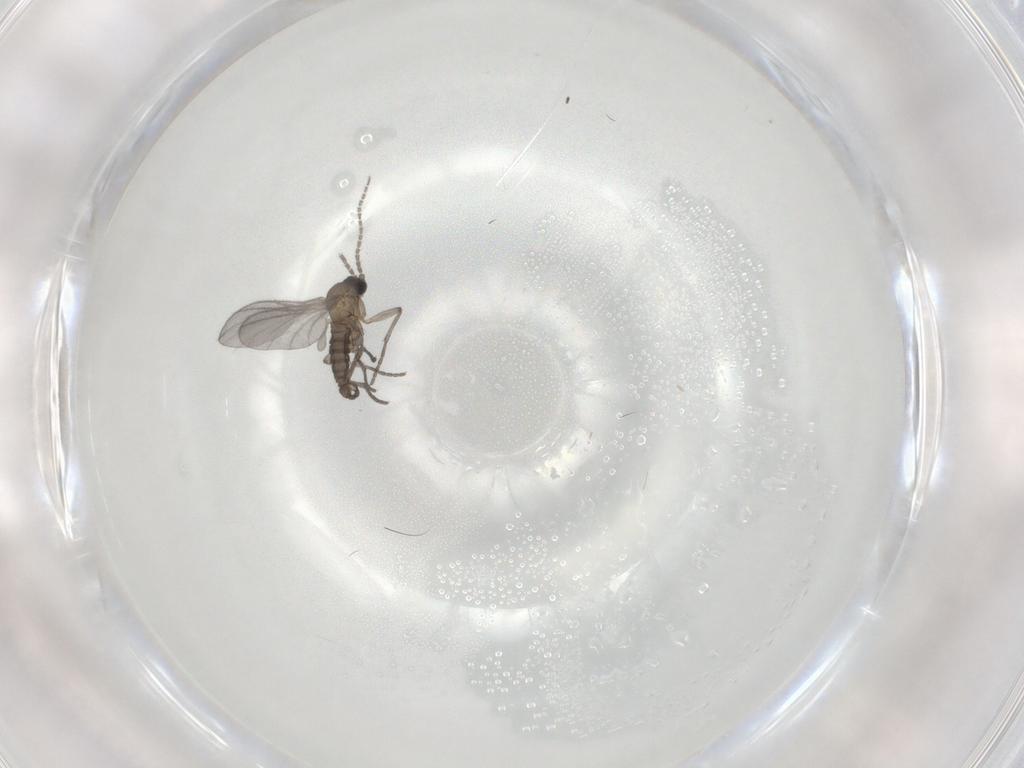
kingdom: Animalia
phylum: Arthropoda
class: Insecta
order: Diptera
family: Sciaridae
